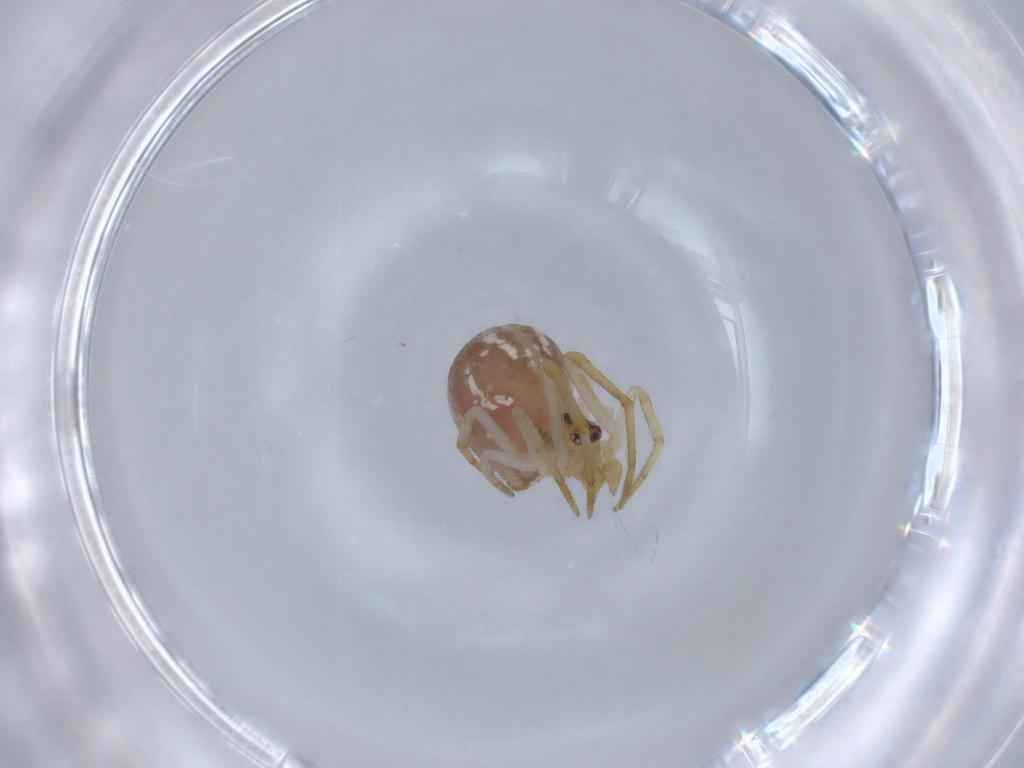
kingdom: Animalia
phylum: Arthropoda
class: Arachnida
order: Araneae
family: Theridiidae
